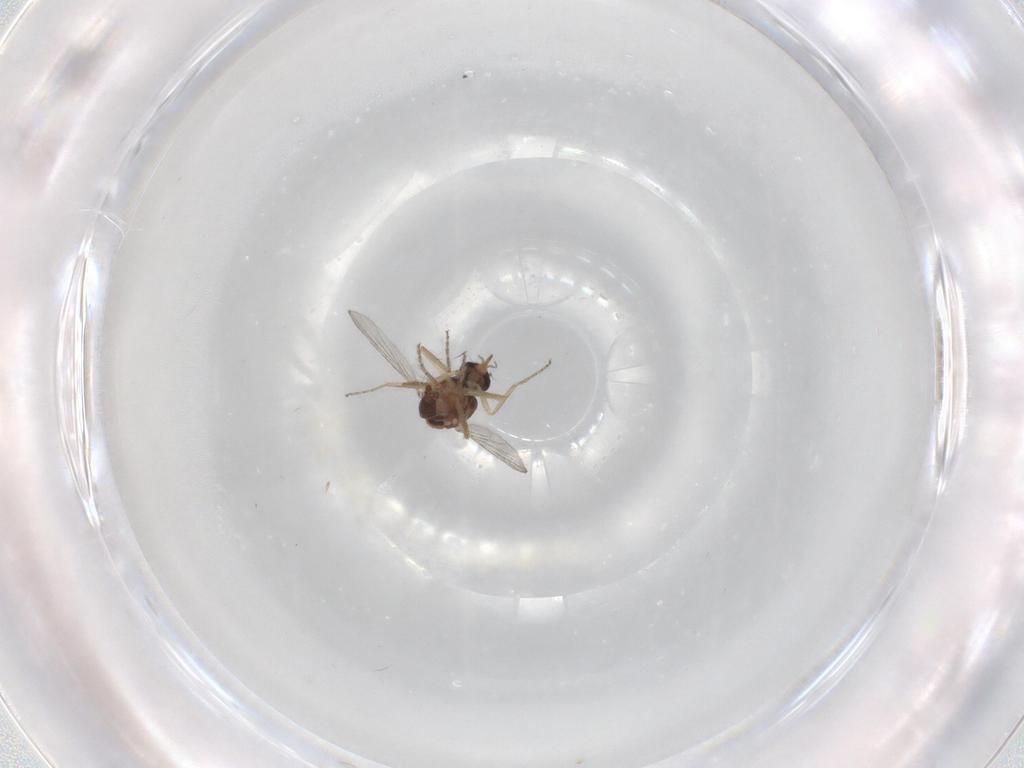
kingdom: Animalia
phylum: Arthropoda
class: Insecta
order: Diptera
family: Ceratopogonidae
